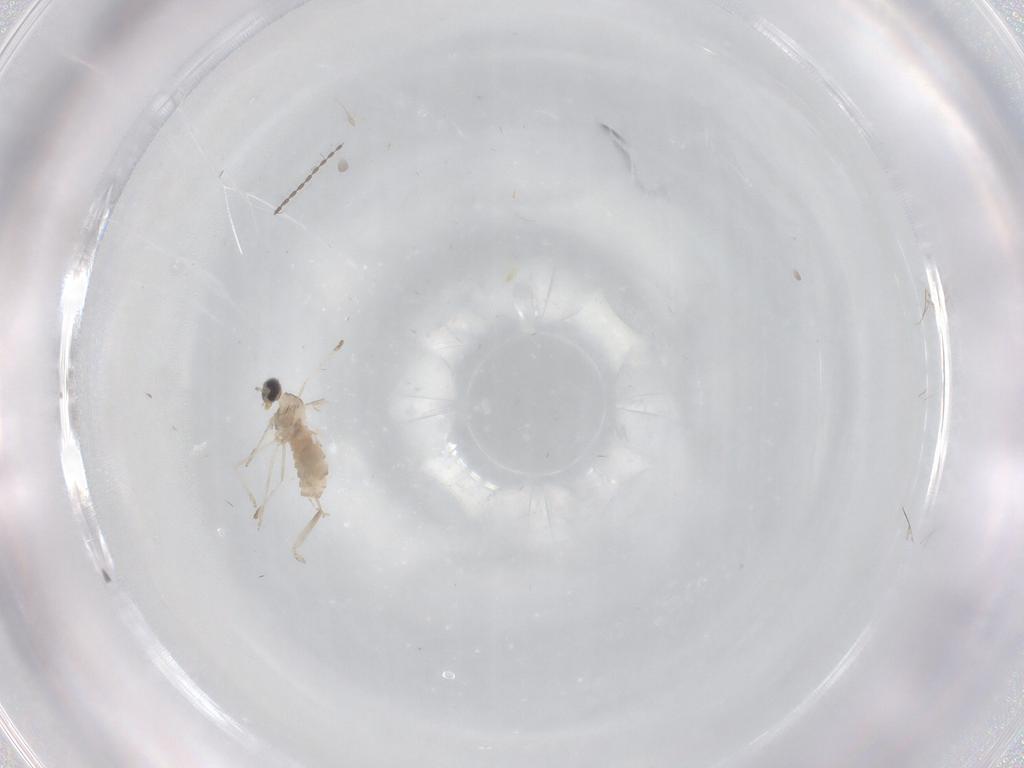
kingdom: Animalia
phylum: Arthropoda
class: Insecta
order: Diptera
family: Cecidomyiidae
